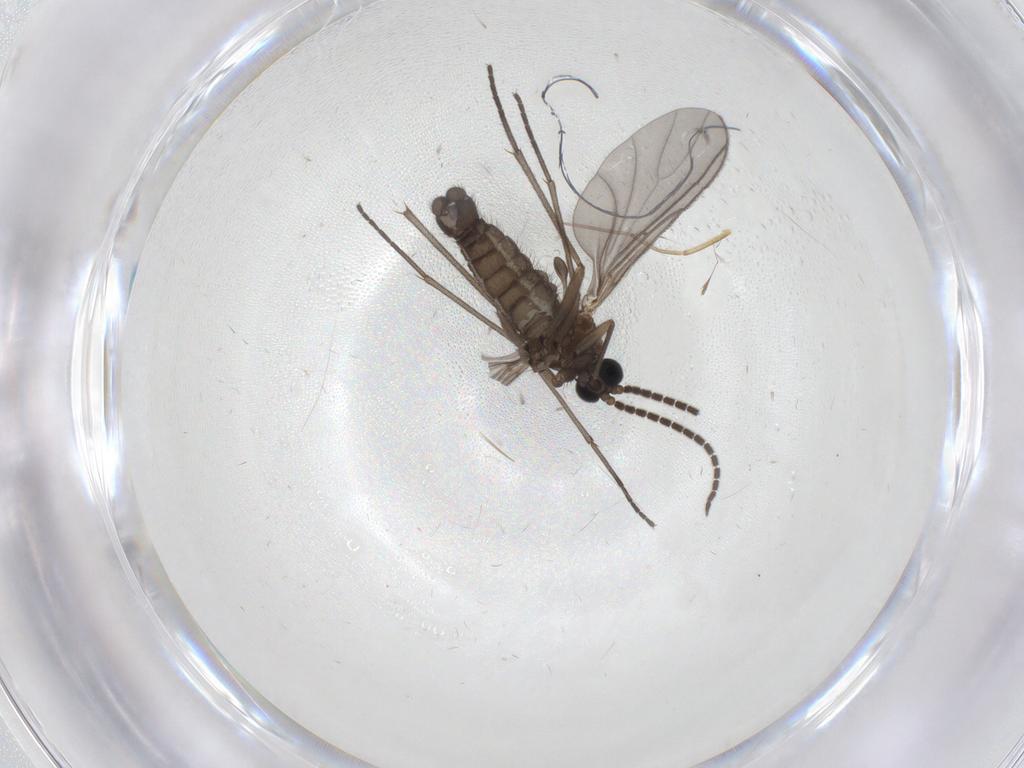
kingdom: Animalia
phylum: Arthropoda
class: Insecta
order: Diptera
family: Sciaridae
